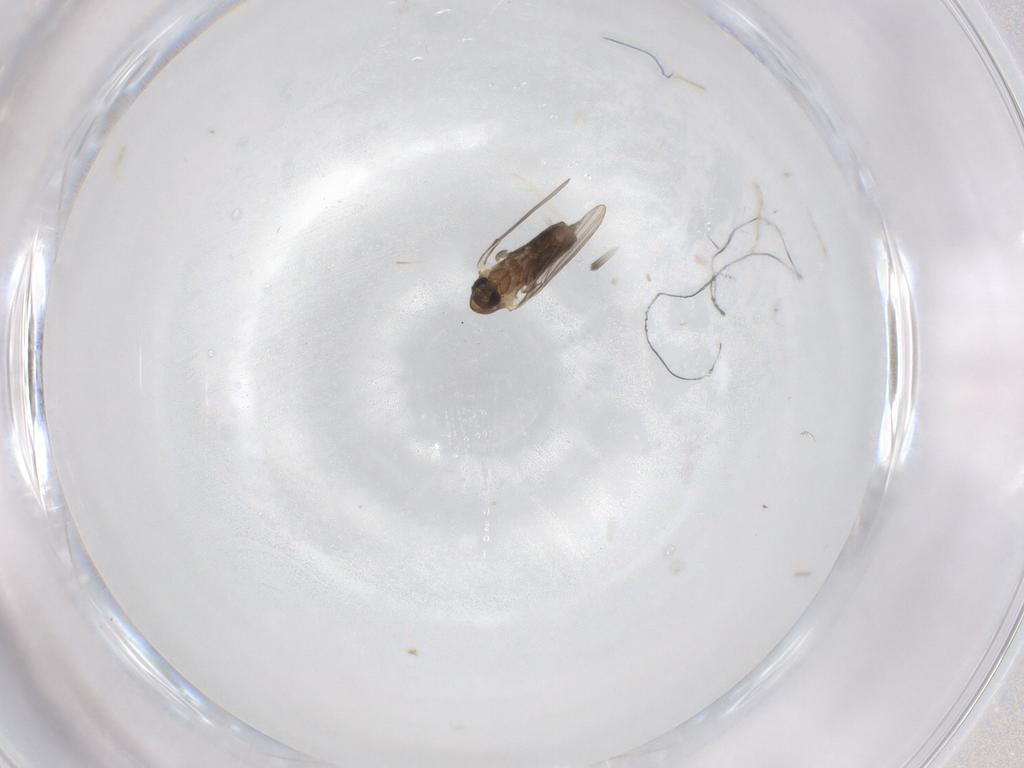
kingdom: Animalia
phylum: Arthropoda
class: Insecta
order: Diptera
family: Psychodidae
